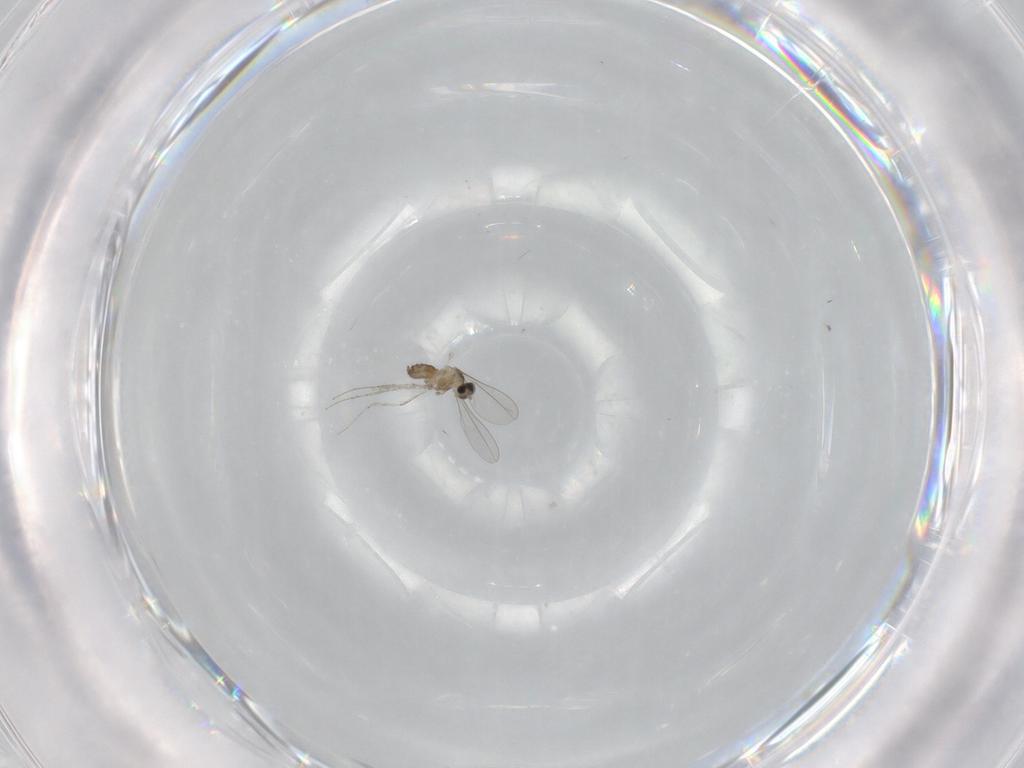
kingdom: Animalia
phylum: Arthropoda
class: Insecta
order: Diptera
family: Cecidomyiidae
